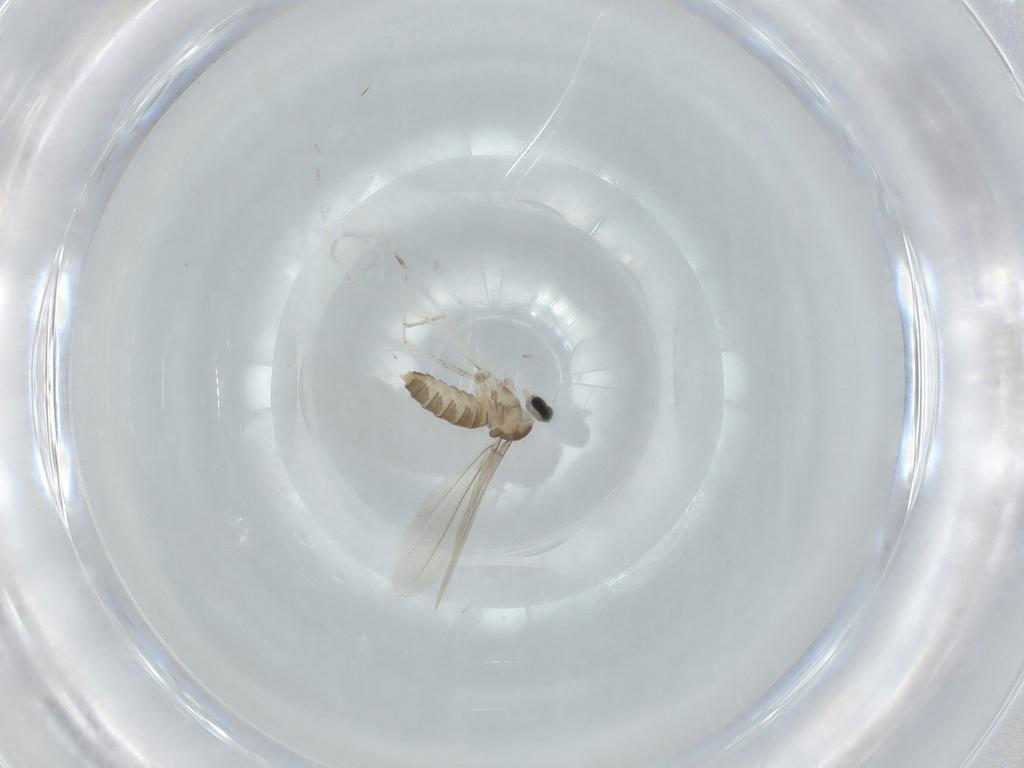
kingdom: Animalia
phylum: Arthropoda
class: Insecta
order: Diptera
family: Cecidomyiidae
